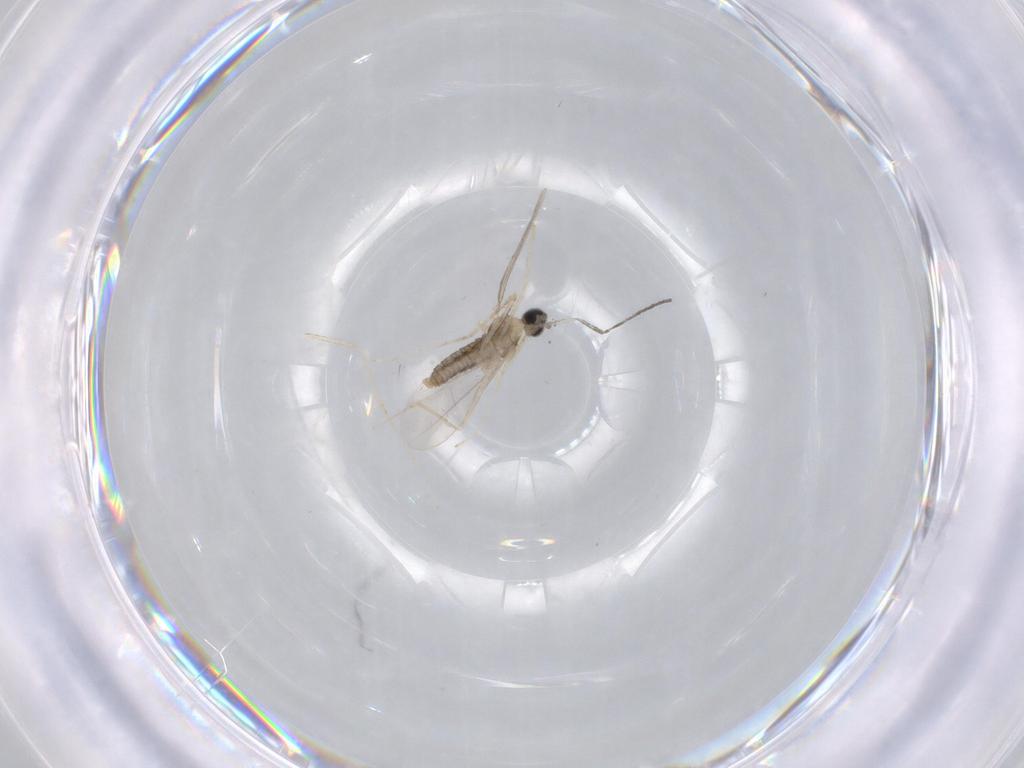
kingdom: Animalia
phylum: Arthropoda
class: Insecta
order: Diptera
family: Cecidomyiidae
